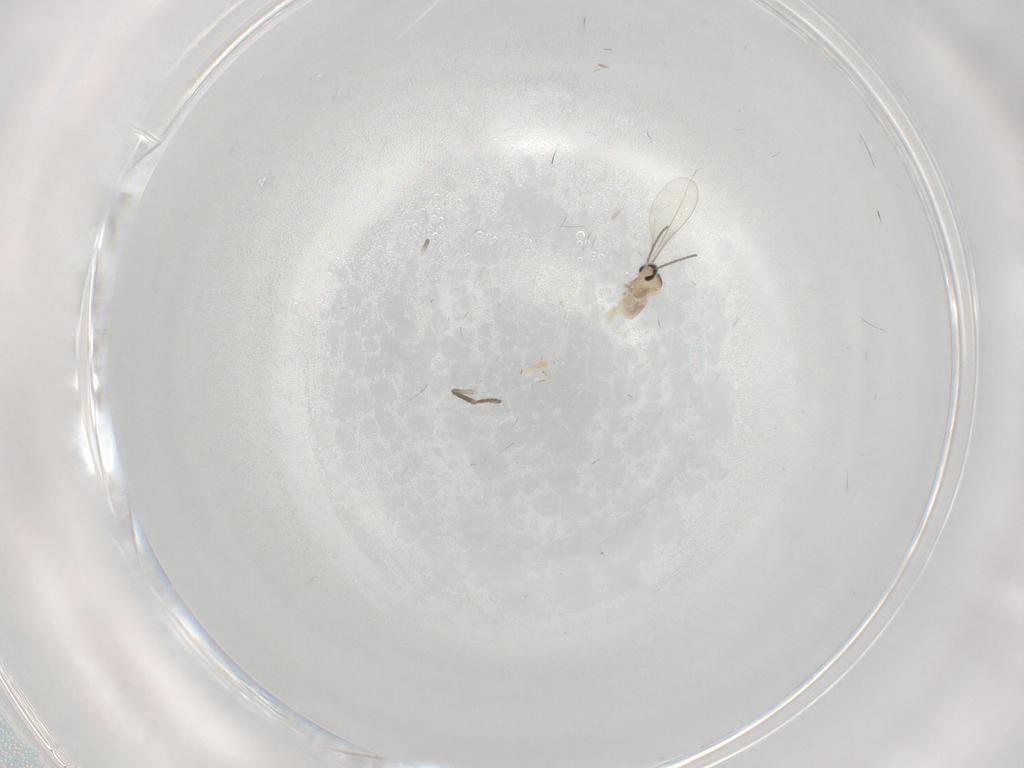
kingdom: Animalia
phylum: Arthropoda
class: Insecta
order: Diptera
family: Cecidomyiidae
